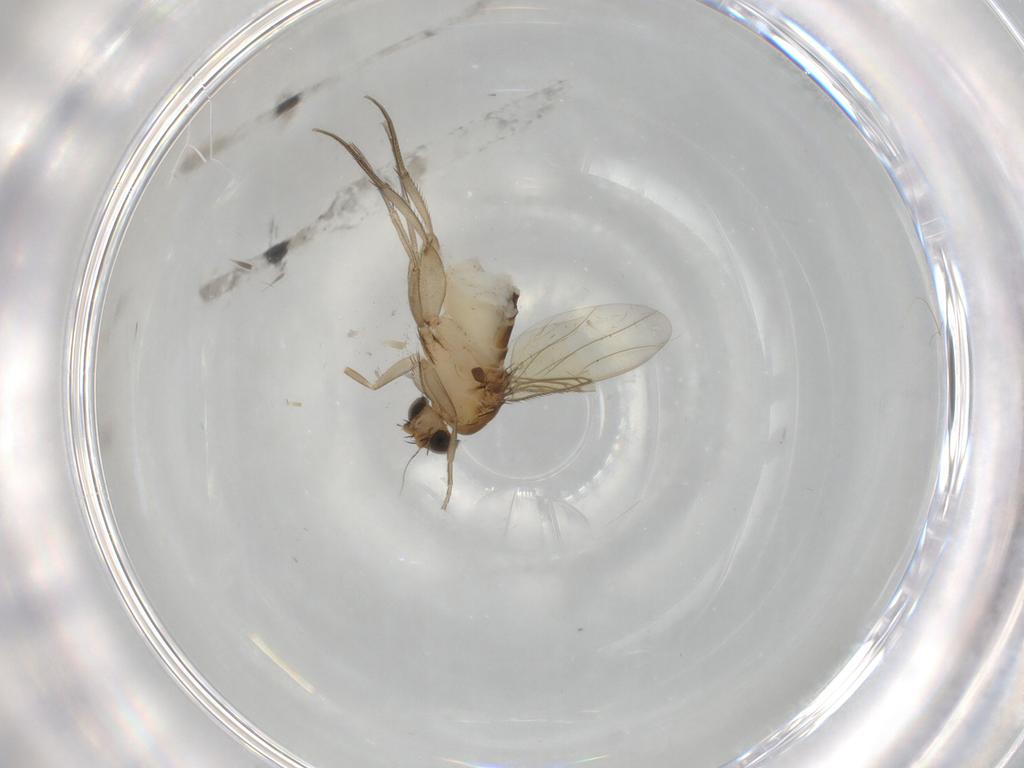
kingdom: Animalia
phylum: Arthropoda
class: Insecta
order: Diptera
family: Phoridae
